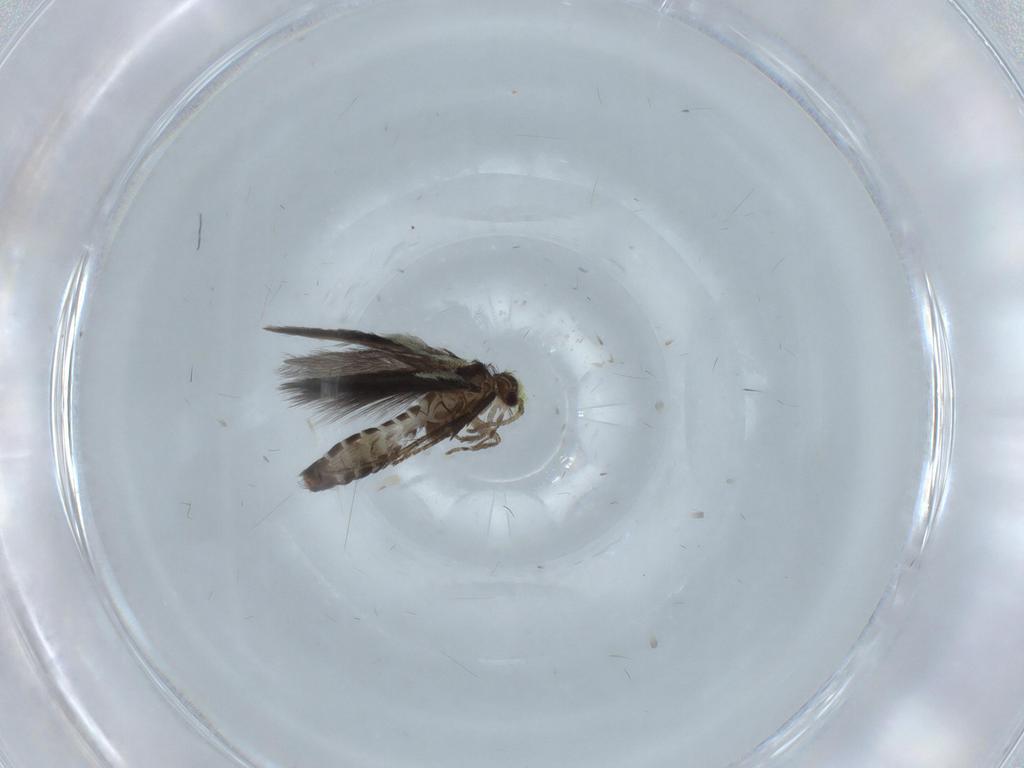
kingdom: Animalia
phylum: Arthropoda
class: Insecta
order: Trichoptera
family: Hydroptilidae
